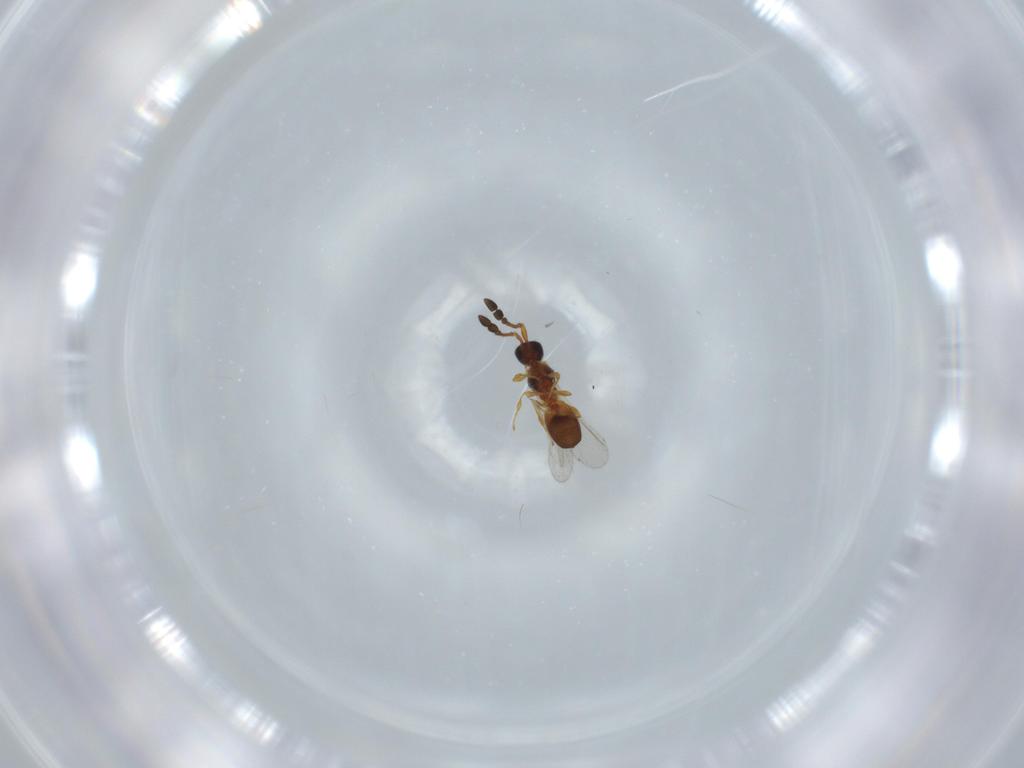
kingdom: Animalia
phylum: Arthropoda
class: Insecta
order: Hymenoptera
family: Diapriidae
